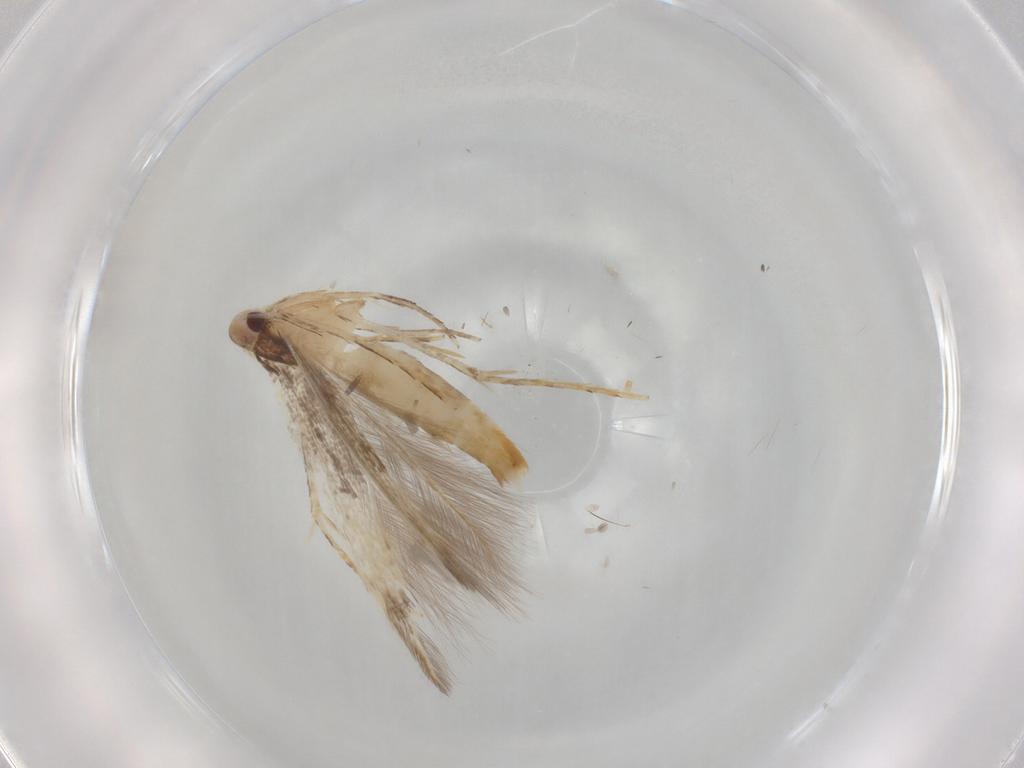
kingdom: Animalia
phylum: Arthropoda
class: Insecta
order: Lepidoptera
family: Cosmopterigidae
